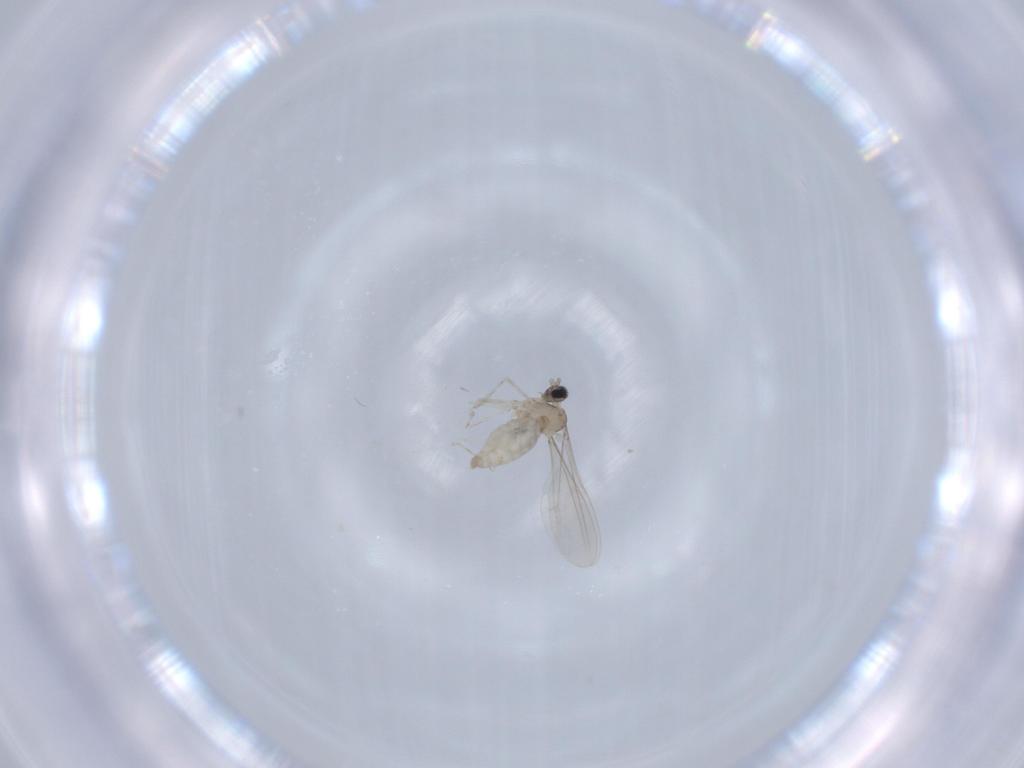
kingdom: Animalia
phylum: Arthropoda
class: Insecta
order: Diptera
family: Cecidomyiidae
